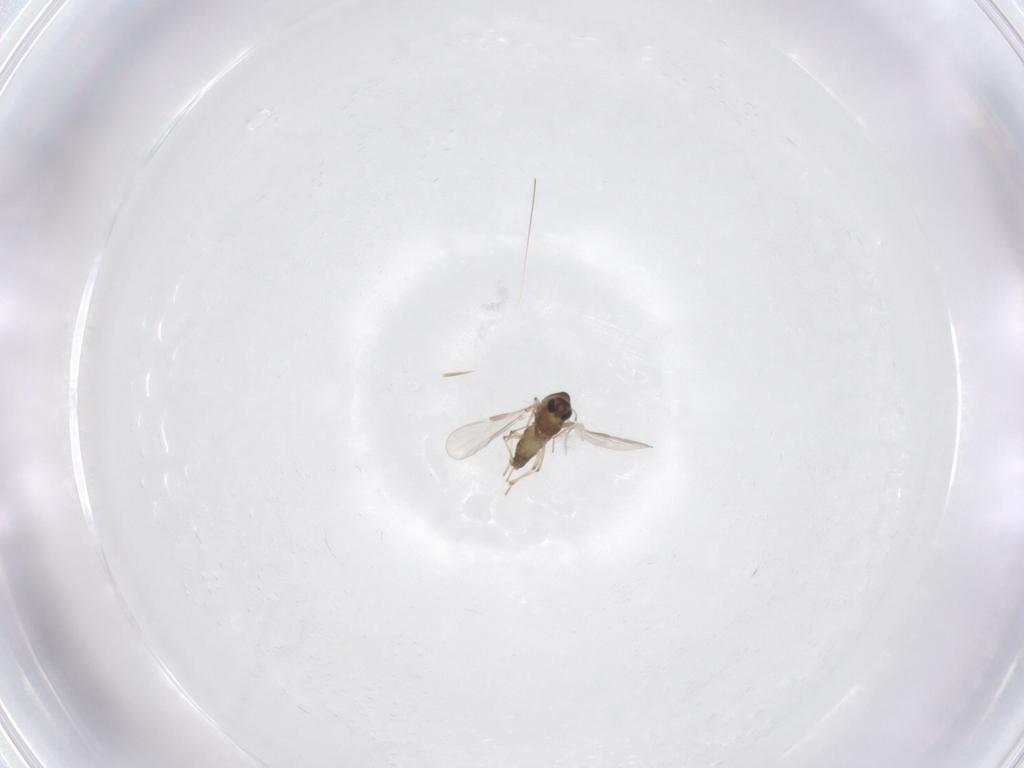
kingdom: Animalia
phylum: Arthropoda
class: Insecta
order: Diptera
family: Chironomidae
